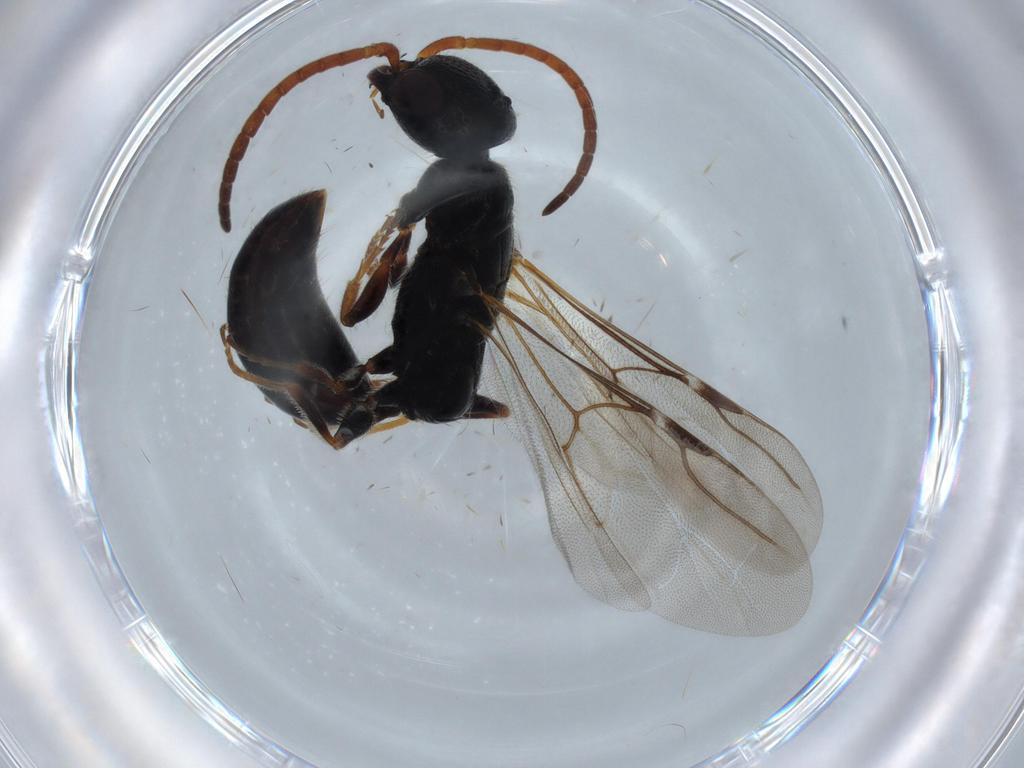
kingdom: Animalia
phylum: Arthropoda
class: Insecta
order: Hymenoptera
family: Bethylidae
